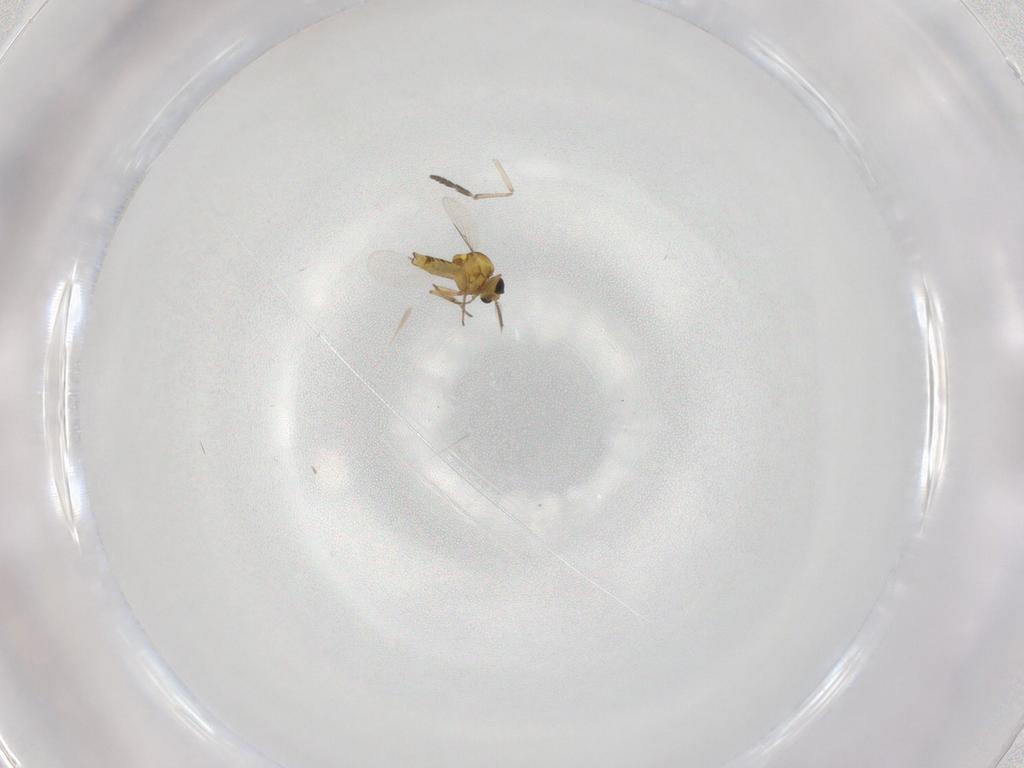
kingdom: Animalia
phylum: Arthropoda
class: Insecta
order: Diptera
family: Ceratopogonidae
